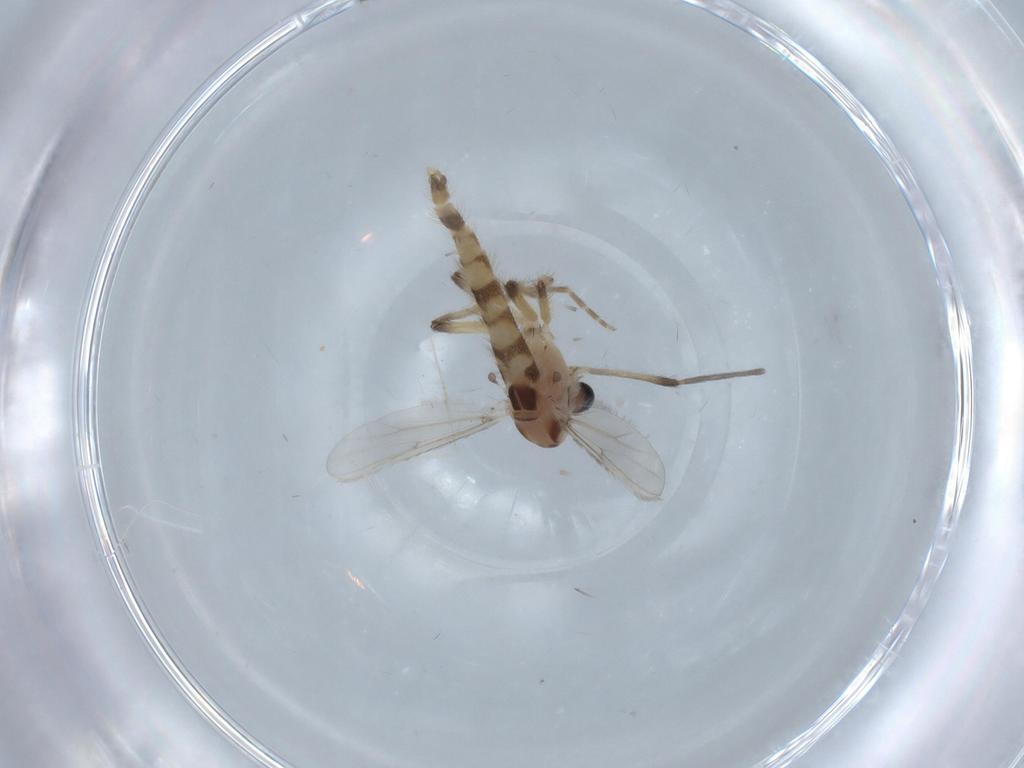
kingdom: Animalia
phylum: Arthropoda
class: Insecta
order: Diptera
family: Chironomidae
